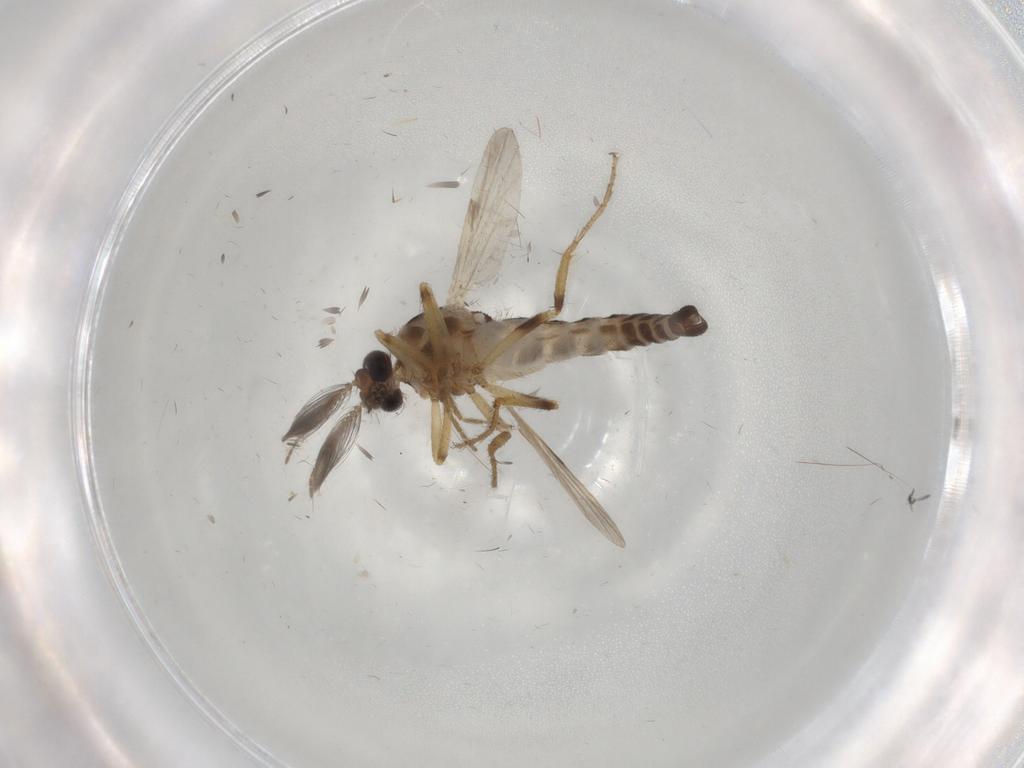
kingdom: Animalia
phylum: Arthropoda
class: Insecta
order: Diptera
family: Ceratopogonidae
